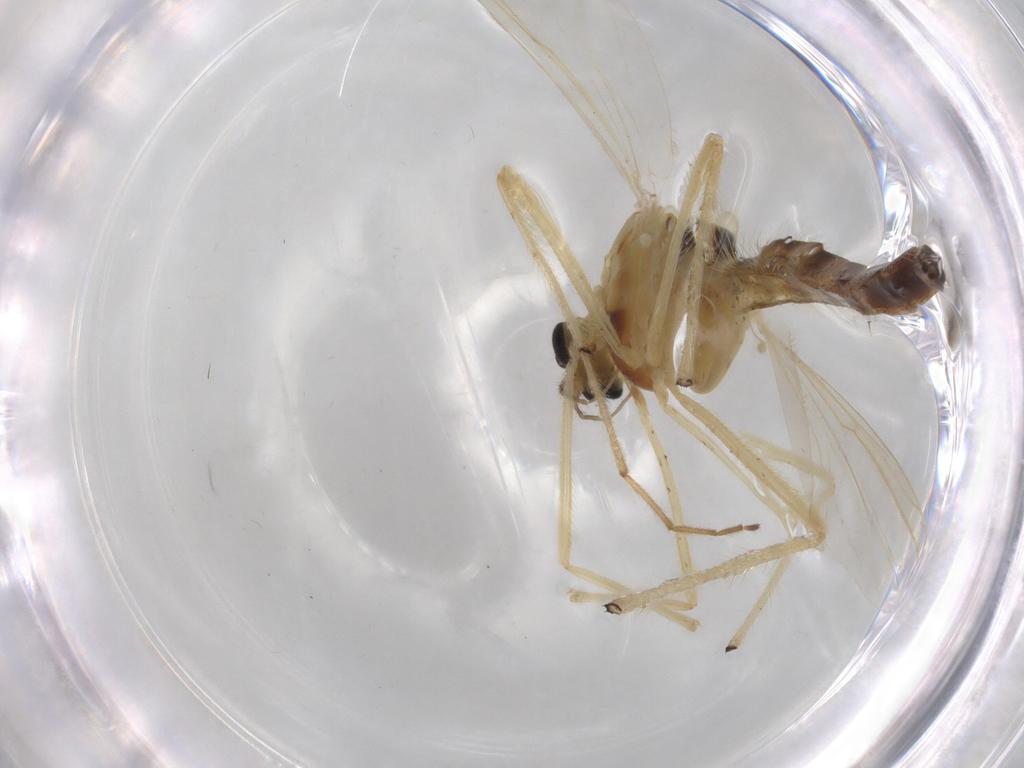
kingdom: Animalia
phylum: Arthropoda
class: Insecta
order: Diptera
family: Chironomidae
